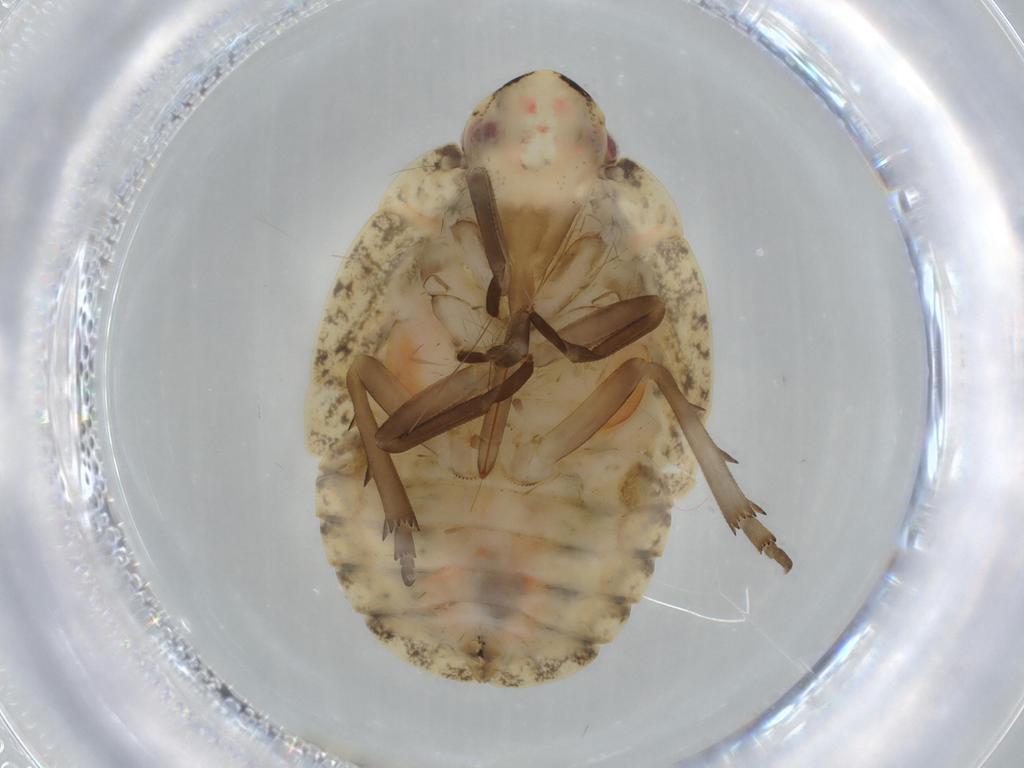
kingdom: Animalia
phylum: Arthropoda
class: Insecta
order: Hemiptera
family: Flatidae
